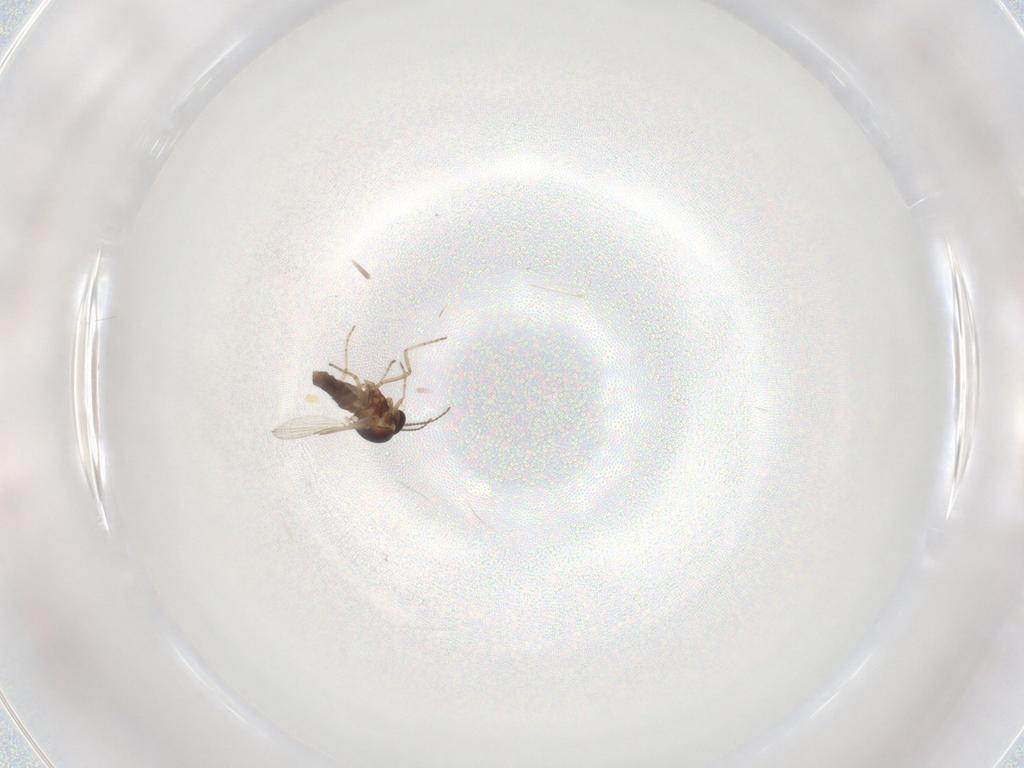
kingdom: Animalia
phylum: Arthropoda
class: Insecta
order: Diptera
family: Ceratopogonidae
